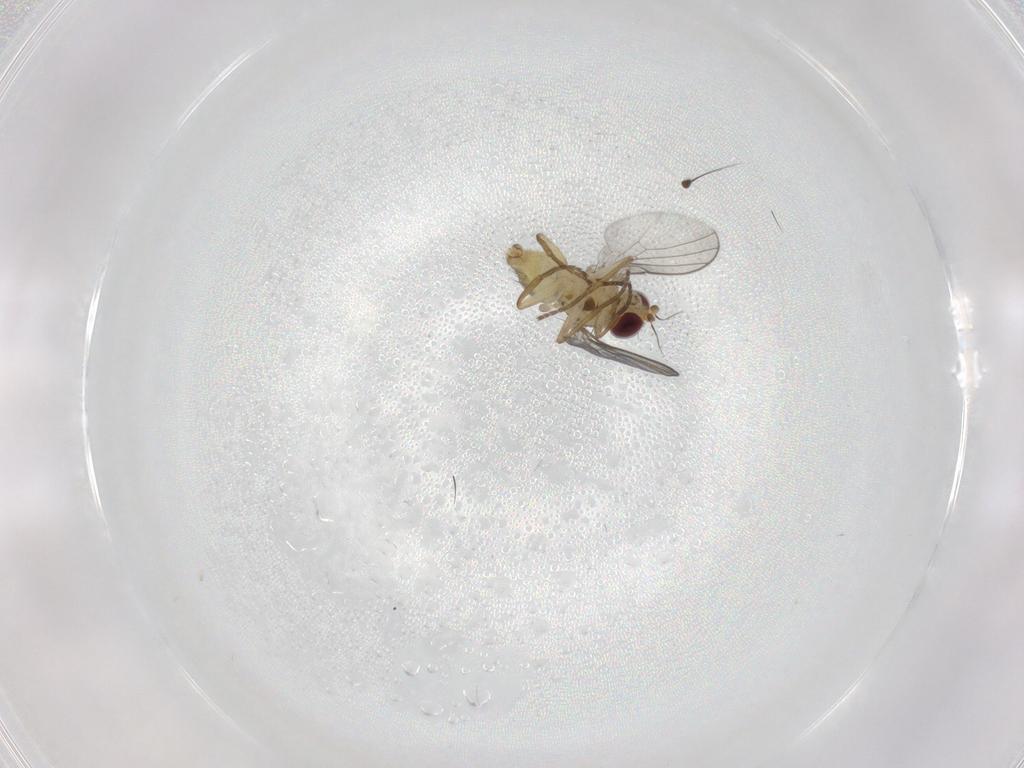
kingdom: Animalia
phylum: Arthropoda
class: Insecta
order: Diptera
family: Agromyzidae
